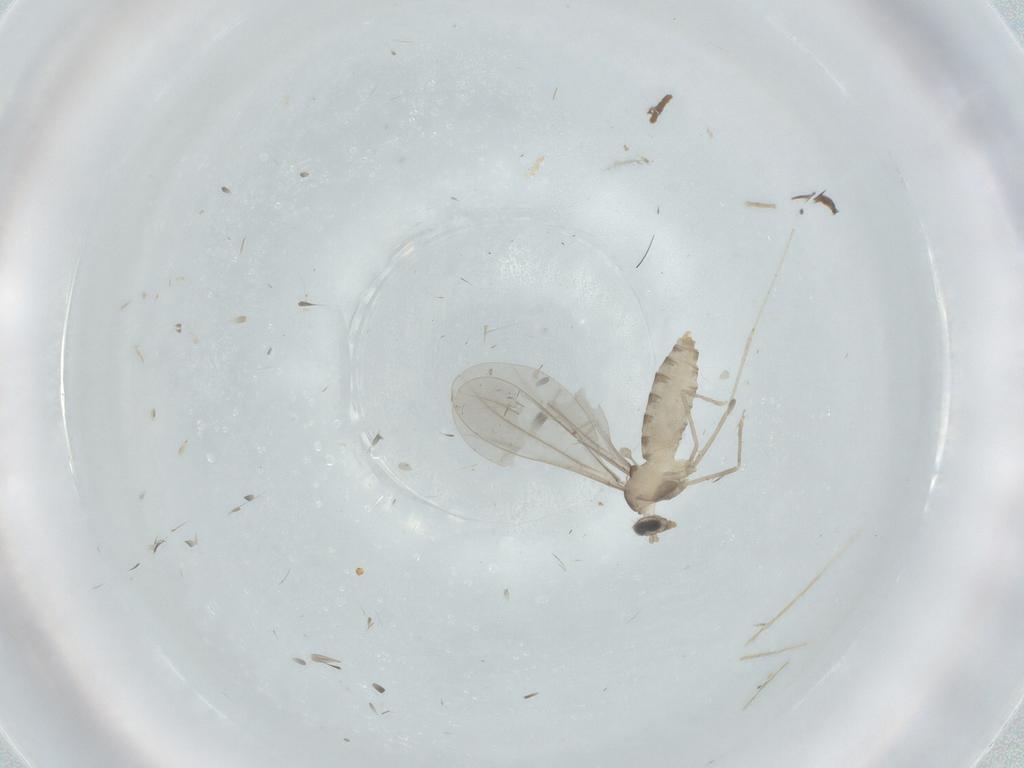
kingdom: Animalia
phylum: Arthropoda
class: Insecta
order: Diptera
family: Cecidomyiidae
